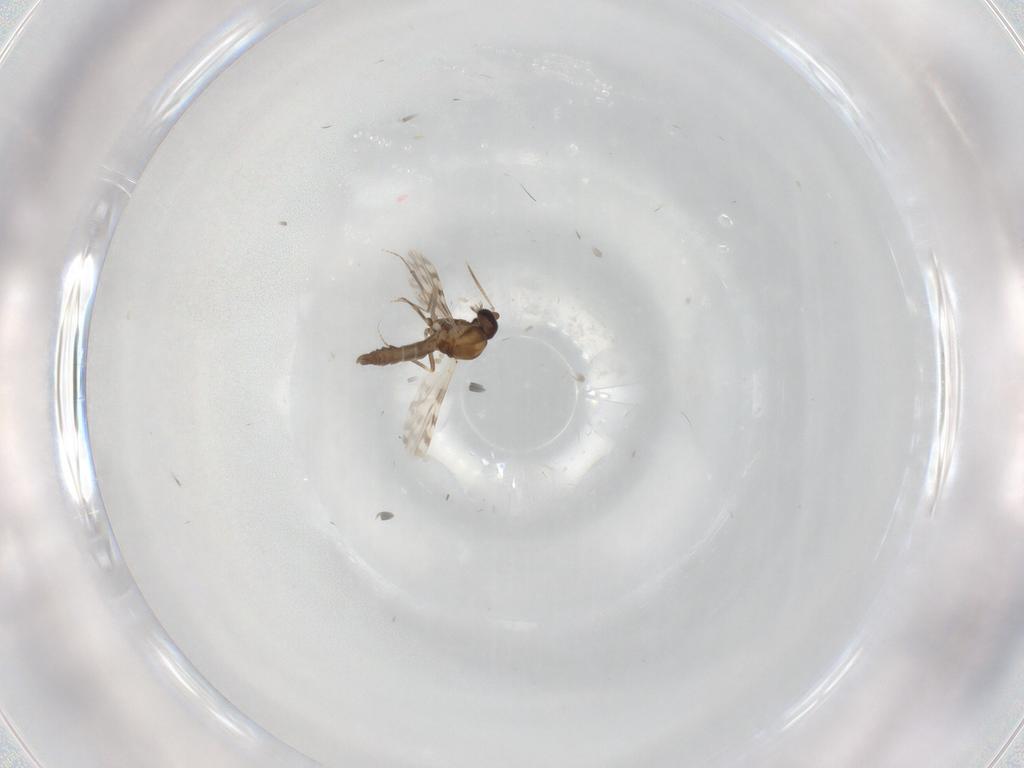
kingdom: Animalia
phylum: Arthropoda
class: Insecta
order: Diptera
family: Ceratopogonidae
